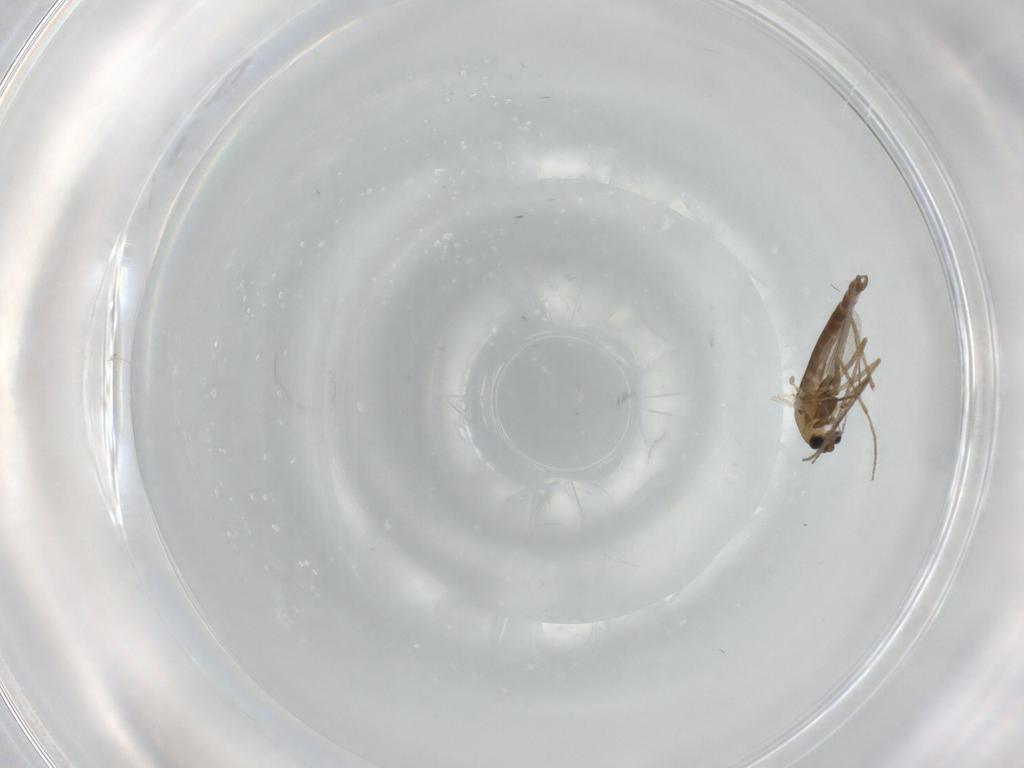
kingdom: Animalia
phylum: Arthropoda
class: Insecta
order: Diptera
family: Chironomidae
